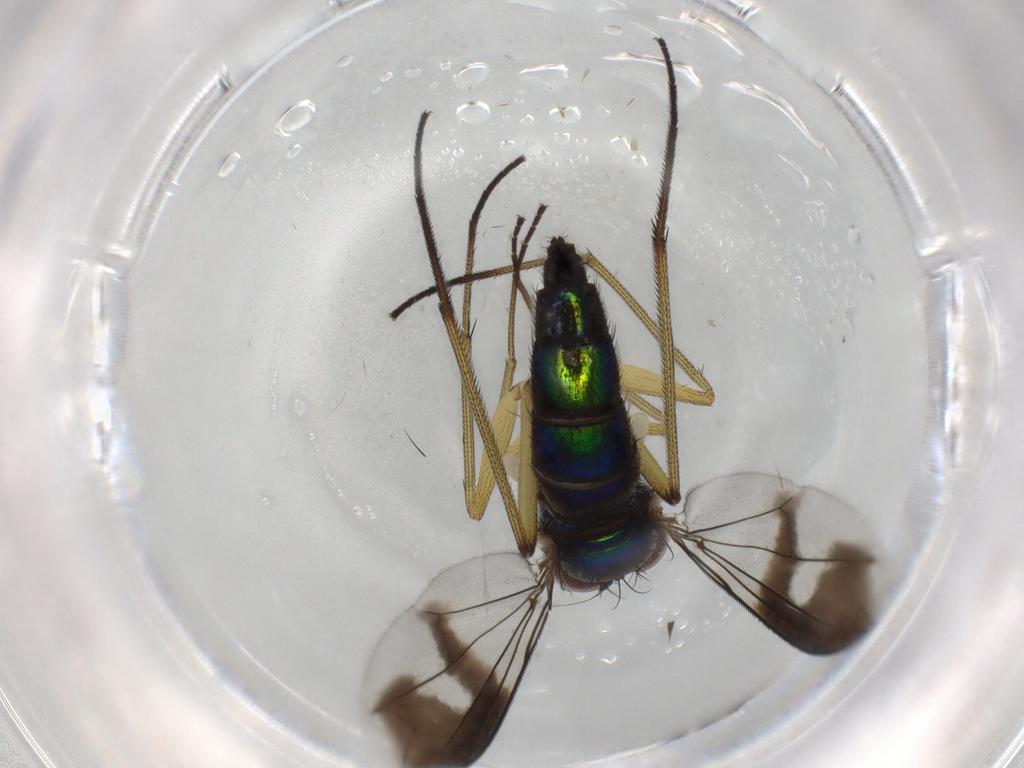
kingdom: Animalia
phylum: Arthropoda
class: Insecta
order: Diptera
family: Dolichopodidae
